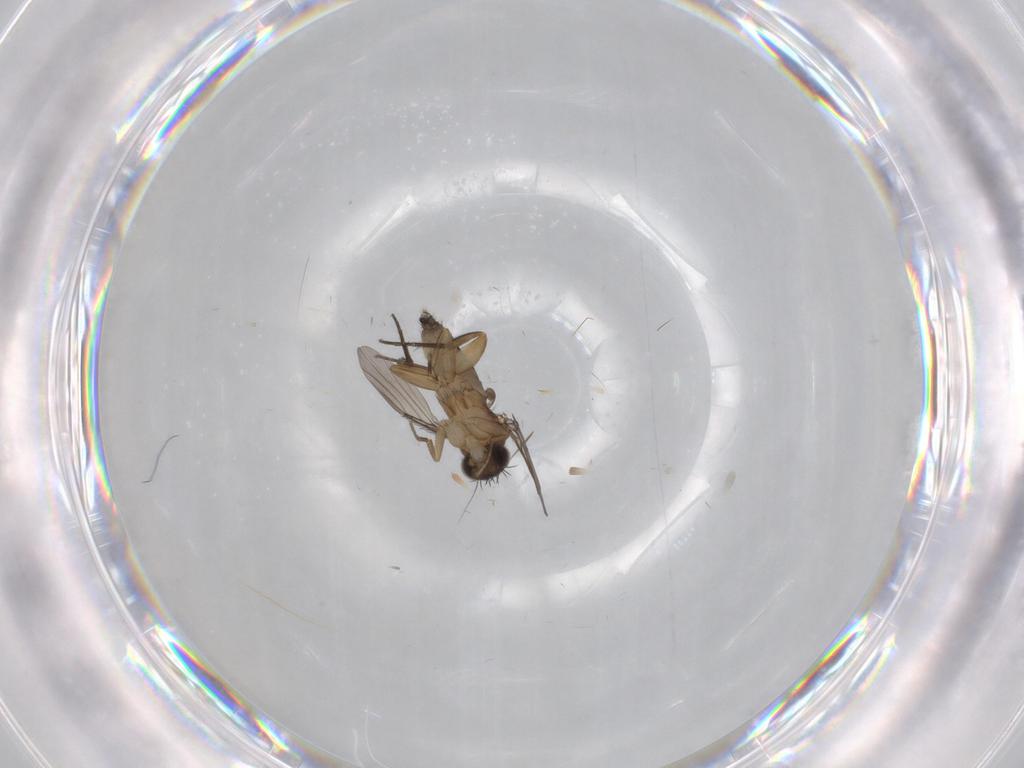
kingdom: Animalia
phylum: Arthropoda
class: Insecta
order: Diptera
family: Phoridae
